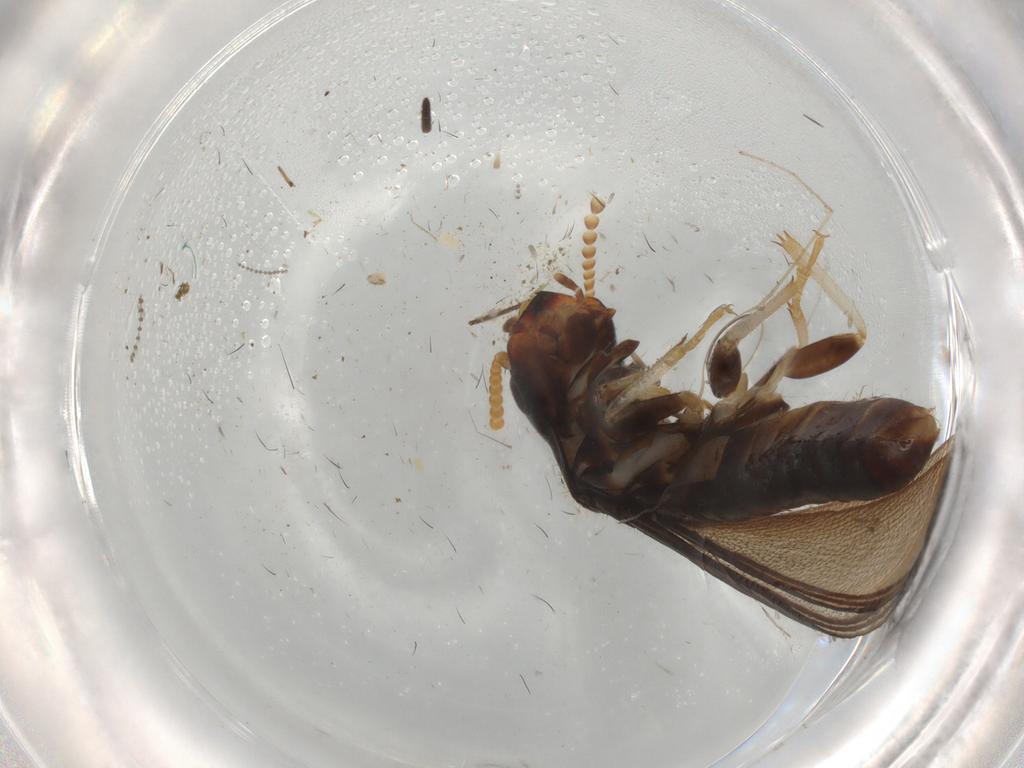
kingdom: Animalia
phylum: Arthropoda
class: Insecta
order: Blattodea
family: Kalotermitidae
